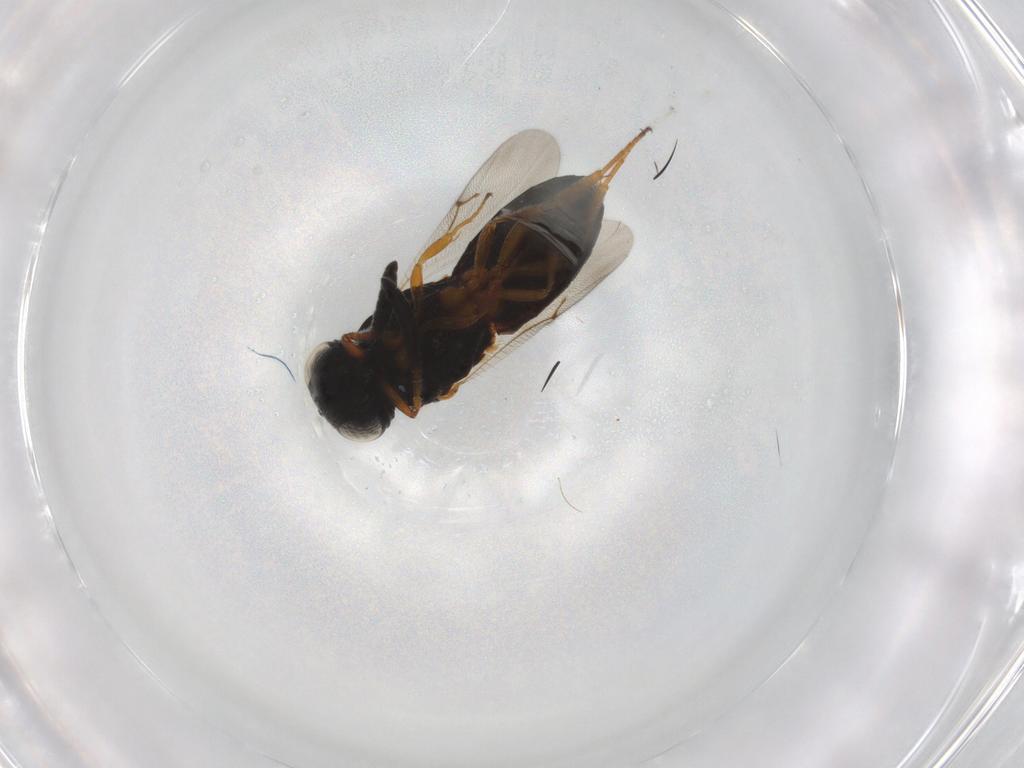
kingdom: Animalia
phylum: Arthropoda
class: Insecta
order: Hymenoptera
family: Scelionidae
